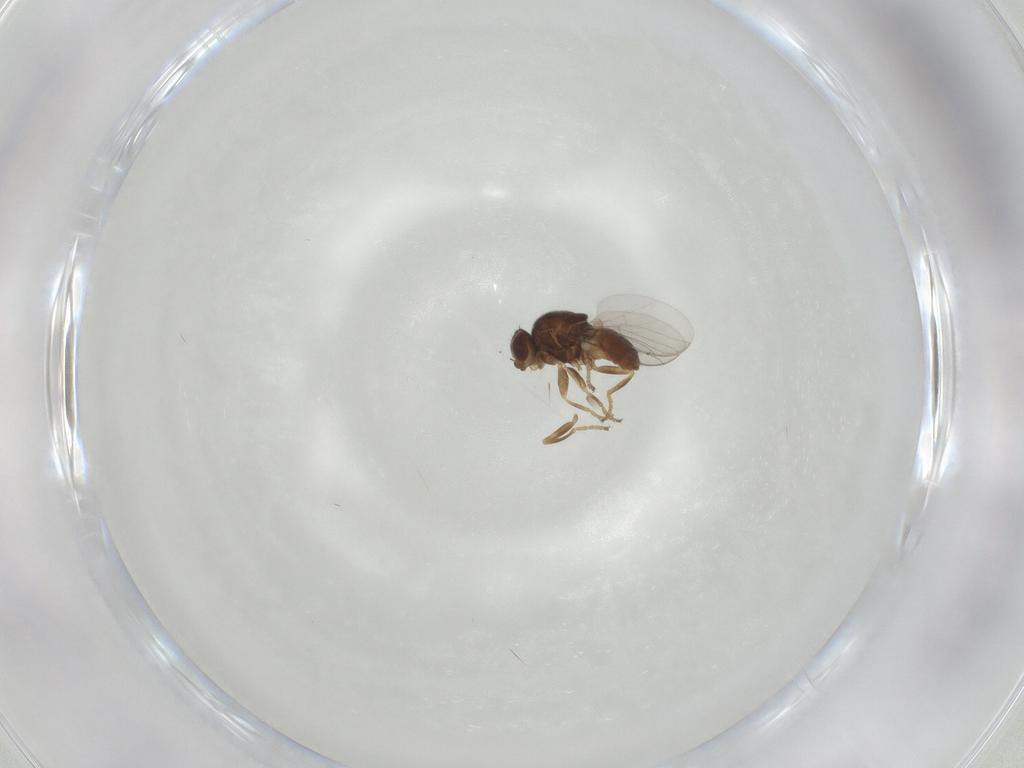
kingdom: Animalia
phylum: Arthropoda
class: Insecta
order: Diptera
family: Chloropidae
